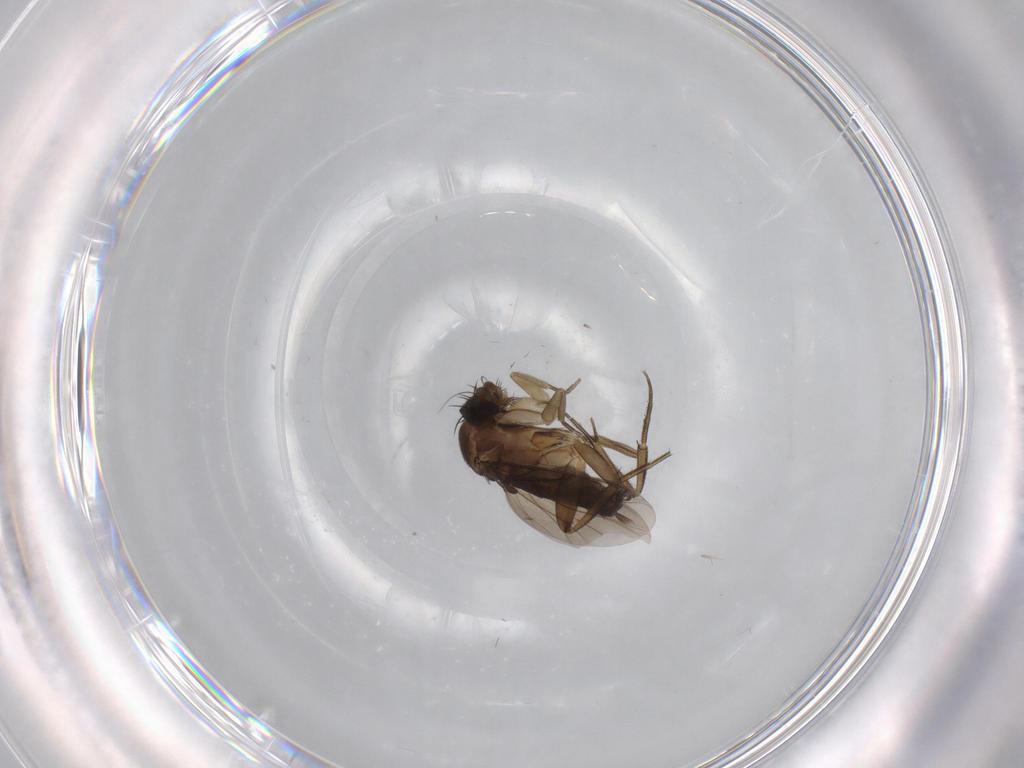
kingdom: Animalia
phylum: Arthropoda
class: Insecta
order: Diptera
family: Phoridae
